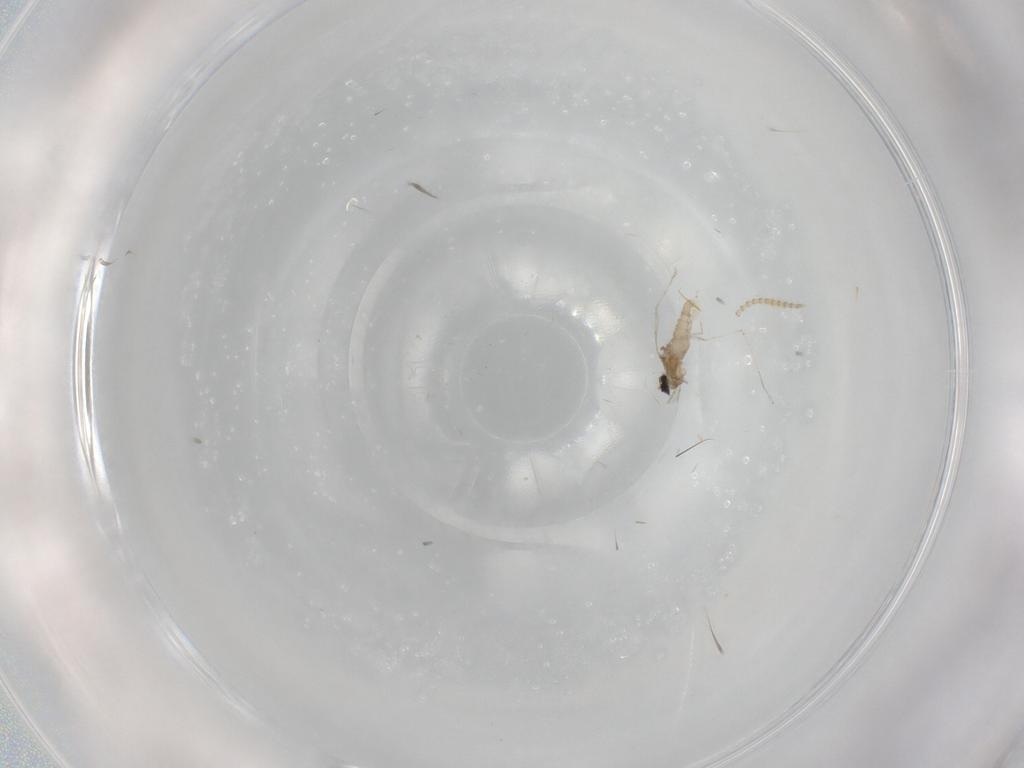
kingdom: Animalia
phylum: Arthropoda
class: Insecta
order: Diptera
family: Cecidomyiidae
